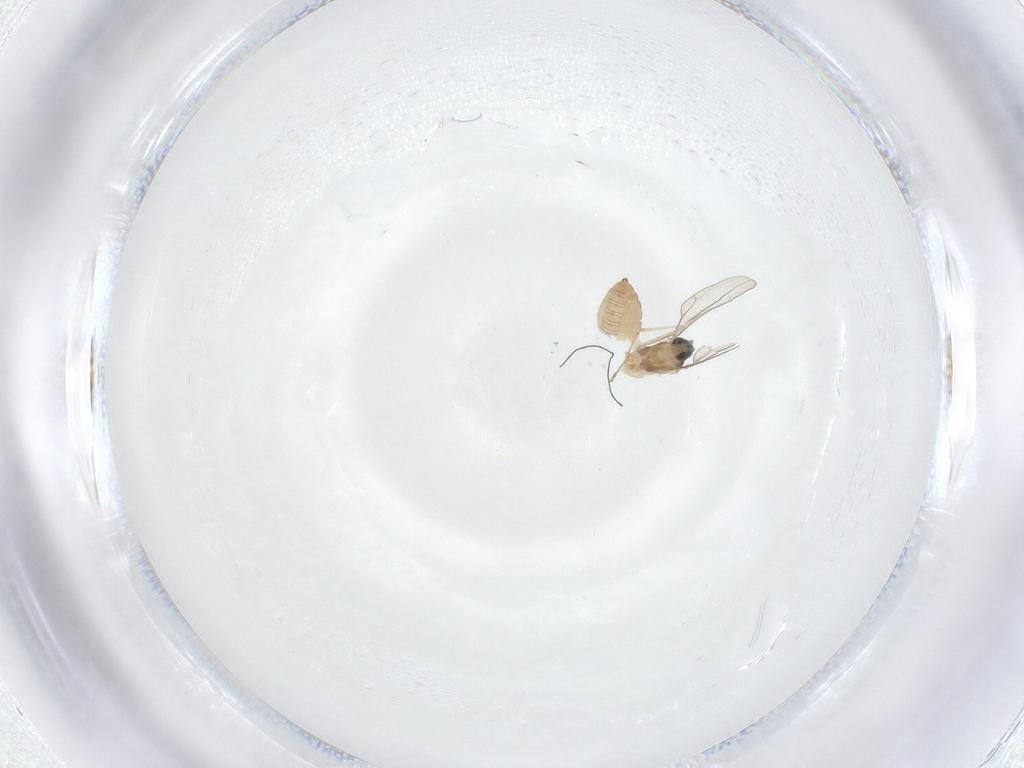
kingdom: Animalia
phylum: Arthropoda
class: Insecta
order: Diptera
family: Cecidomyiidae
